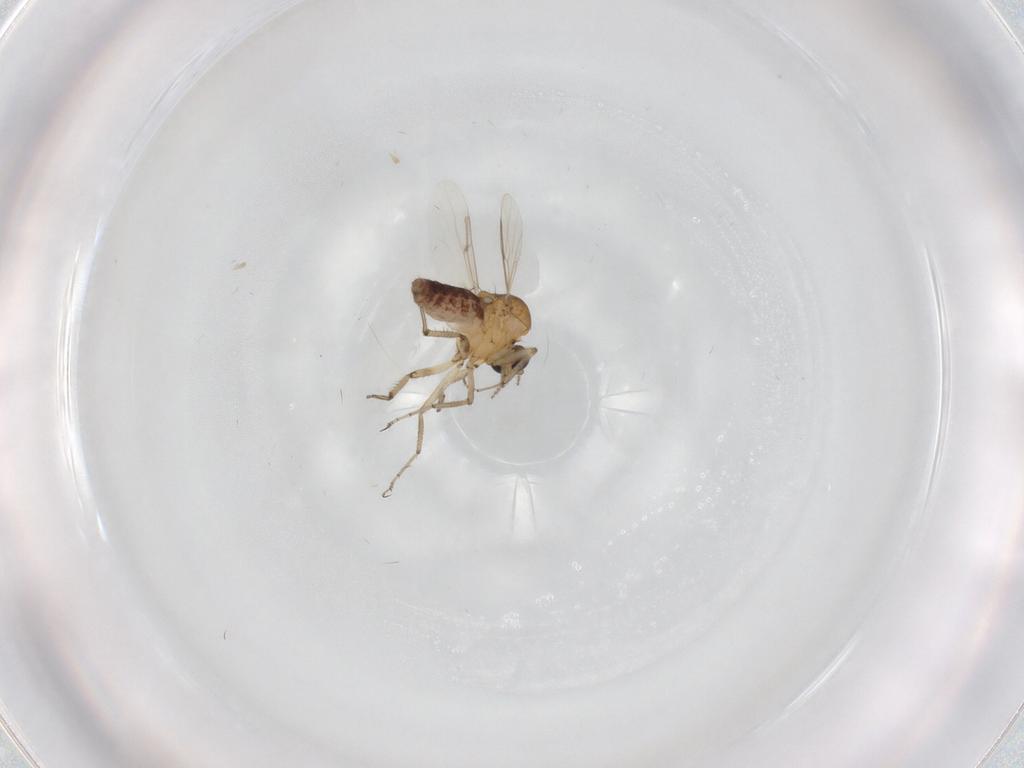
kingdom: Animalia
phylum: Arthropoda
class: Insecta
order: Diptera
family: Ceratopogonidae
